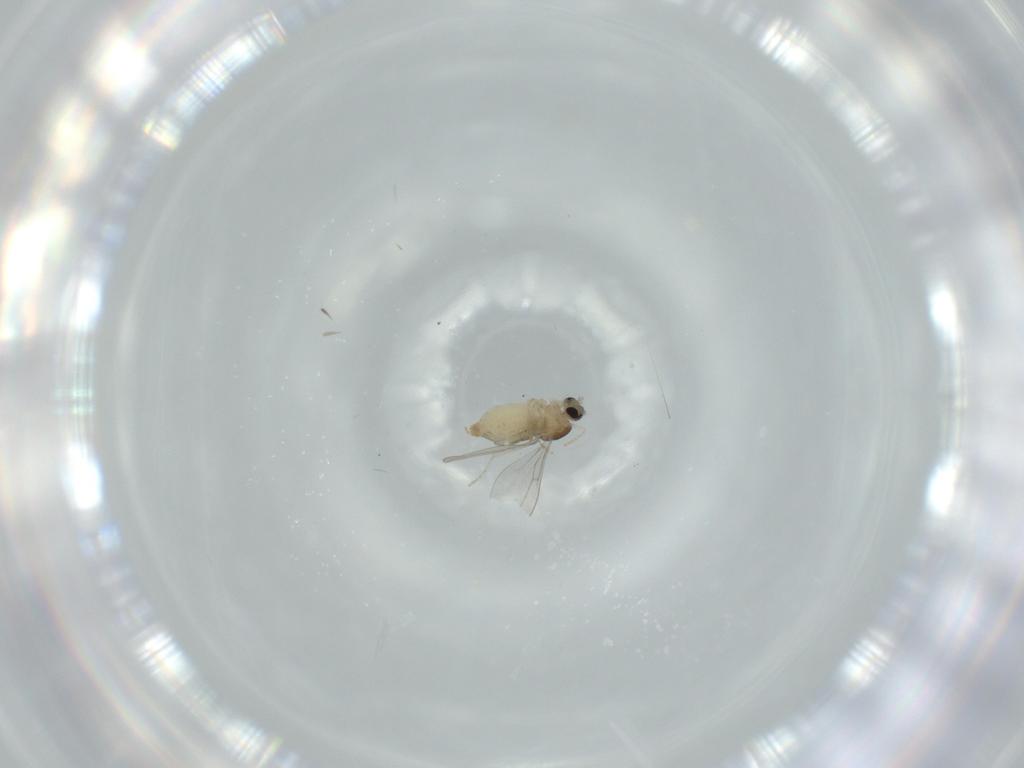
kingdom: Animalia
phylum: Arthropoda
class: Insecta
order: Diptera
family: Cecidomyiidae
